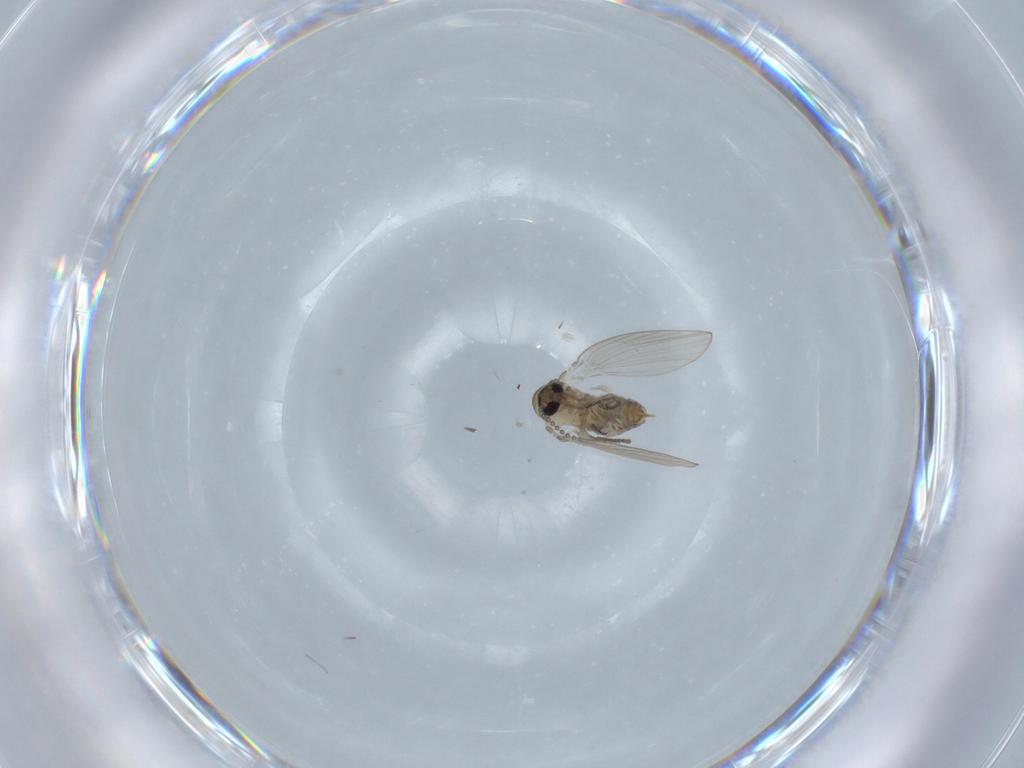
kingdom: Animalia
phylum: Arthropoda
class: Insecta
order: Diptera
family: Psychodidae
